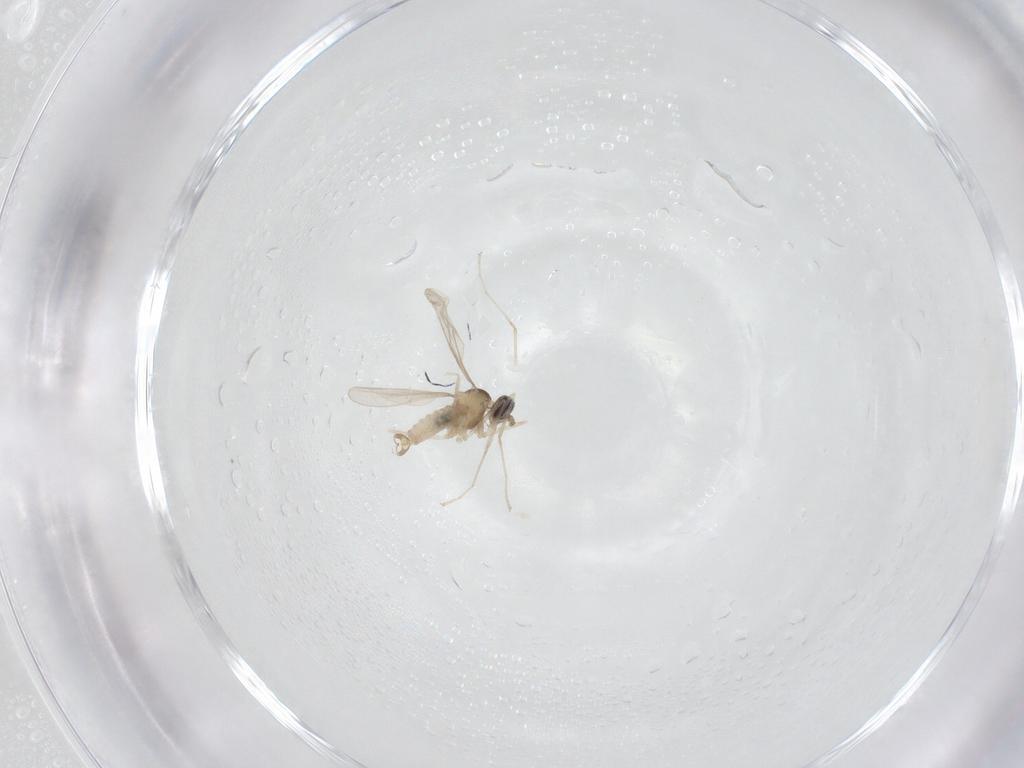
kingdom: Animalia
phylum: Arthropoda
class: Insecta
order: Diptera
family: Cecidomyiidae
